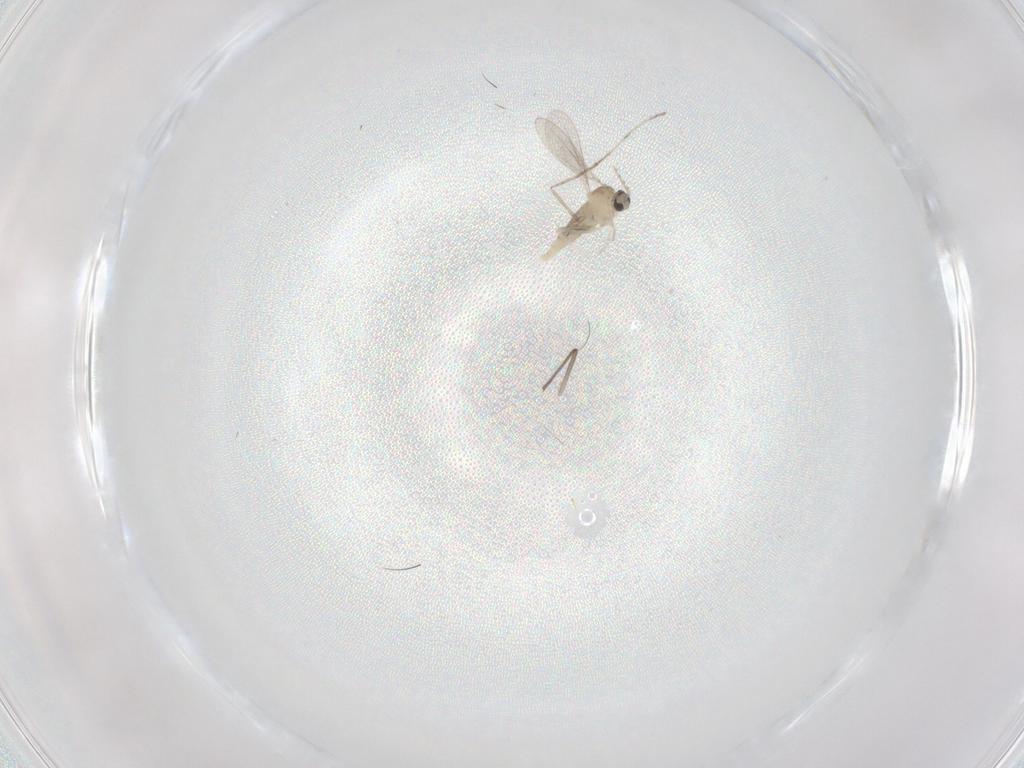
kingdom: Animalia
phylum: Arthropoda
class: Insecta
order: Diptera
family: Cecidomyiidae
